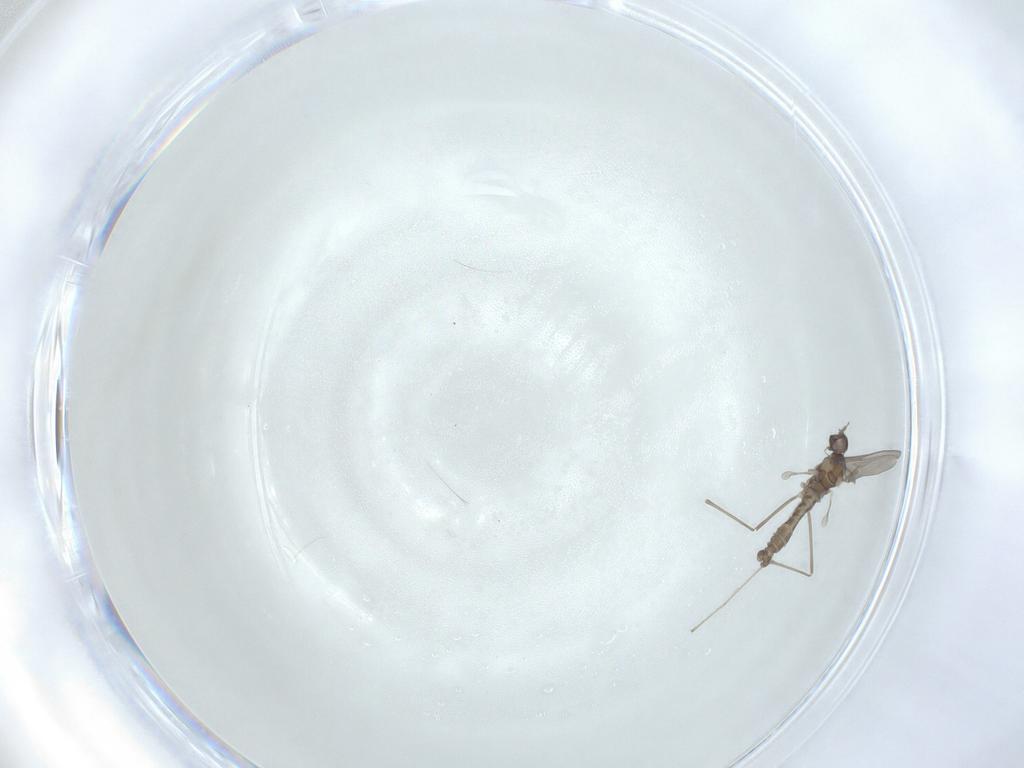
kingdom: Animalia
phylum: Arthropoda
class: Insecta
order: Diptera
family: Cecidomyiidae
